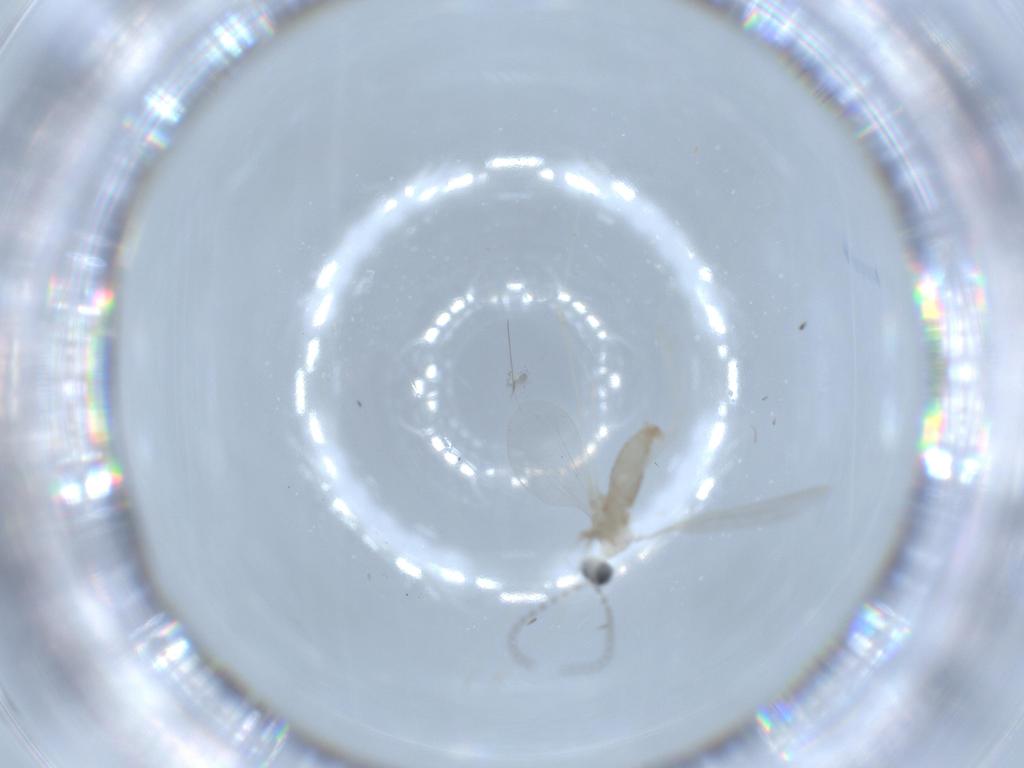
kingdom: Animalia
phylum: Arthropoda
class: Insecta
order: Diptera
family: Cecidomyiidae
